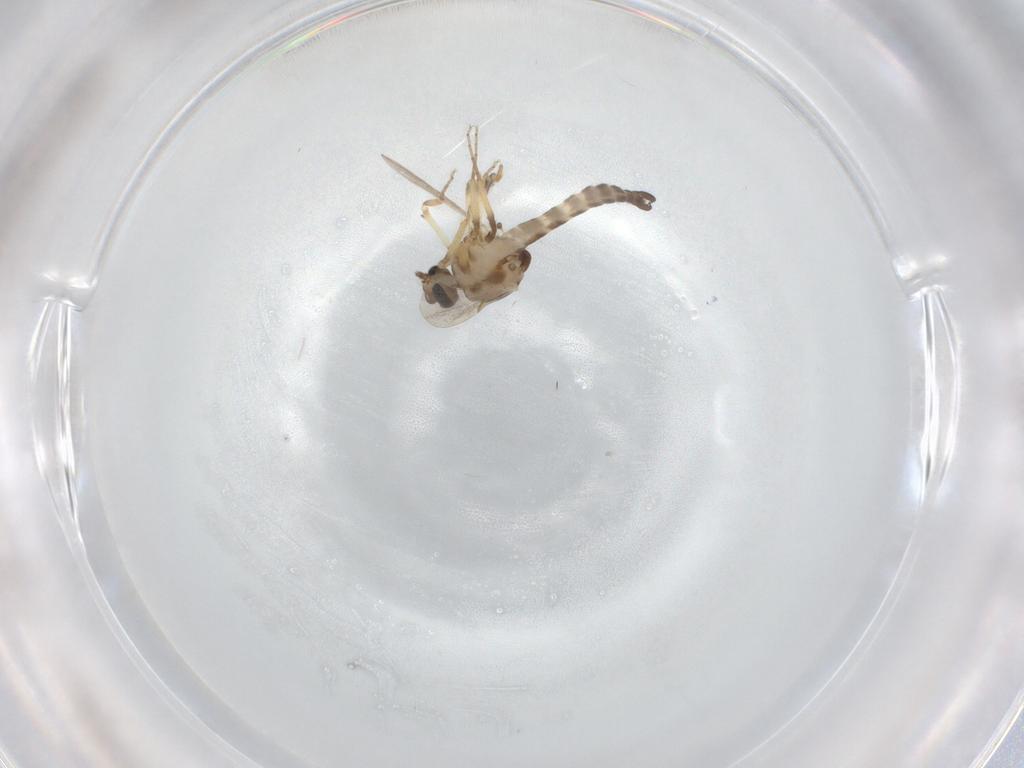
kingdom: Animalia
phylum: Arthropoda
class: Insecta
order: Diptera
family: Ceratopogonidae
